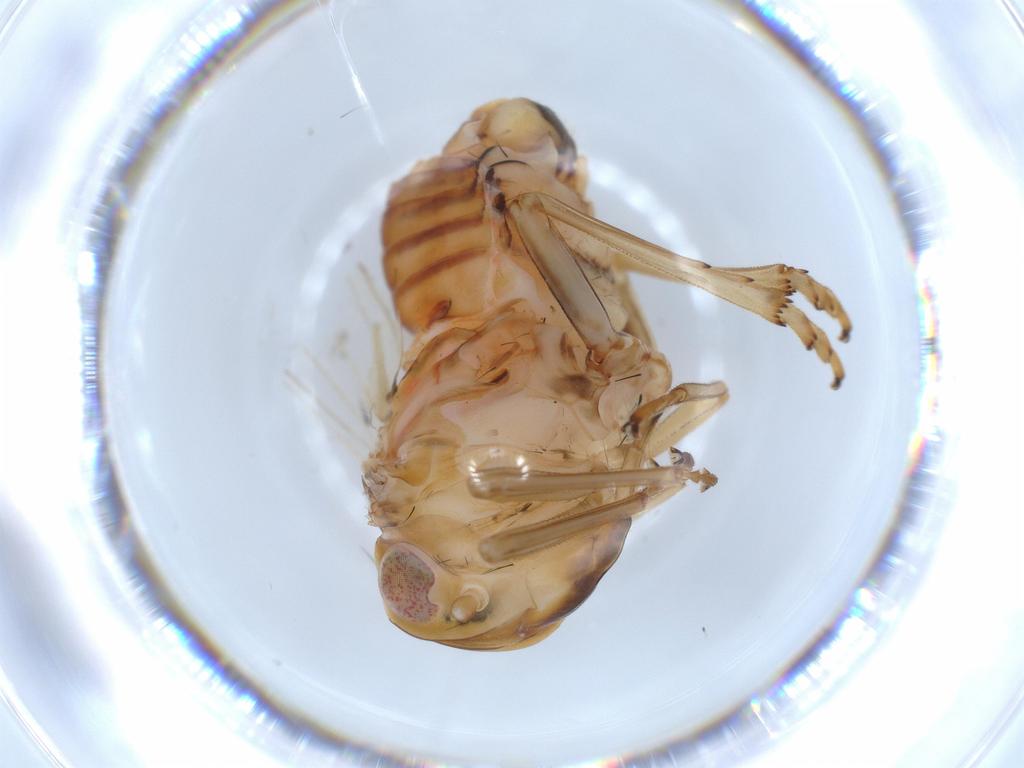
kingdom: Animalia
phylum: Arthropoda
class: Insecta
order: Hemiptera
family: Tropiduchidae
